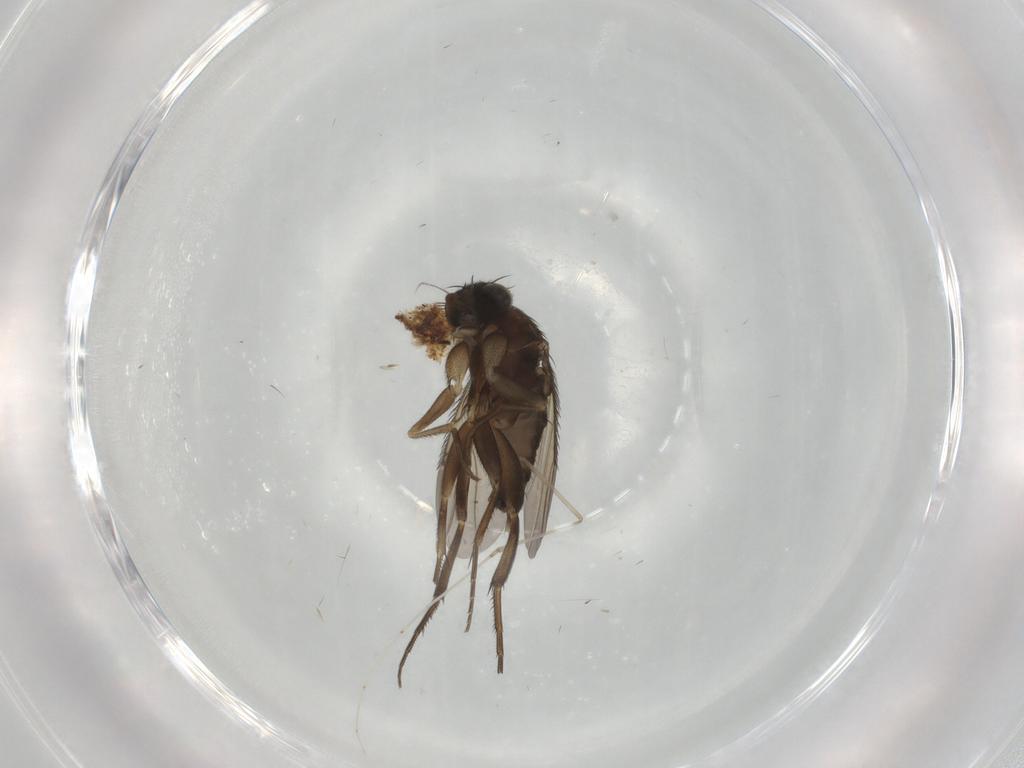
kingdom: Animalia
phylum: Arthropoda
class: Insecta
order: Diptera
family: Phoridae
